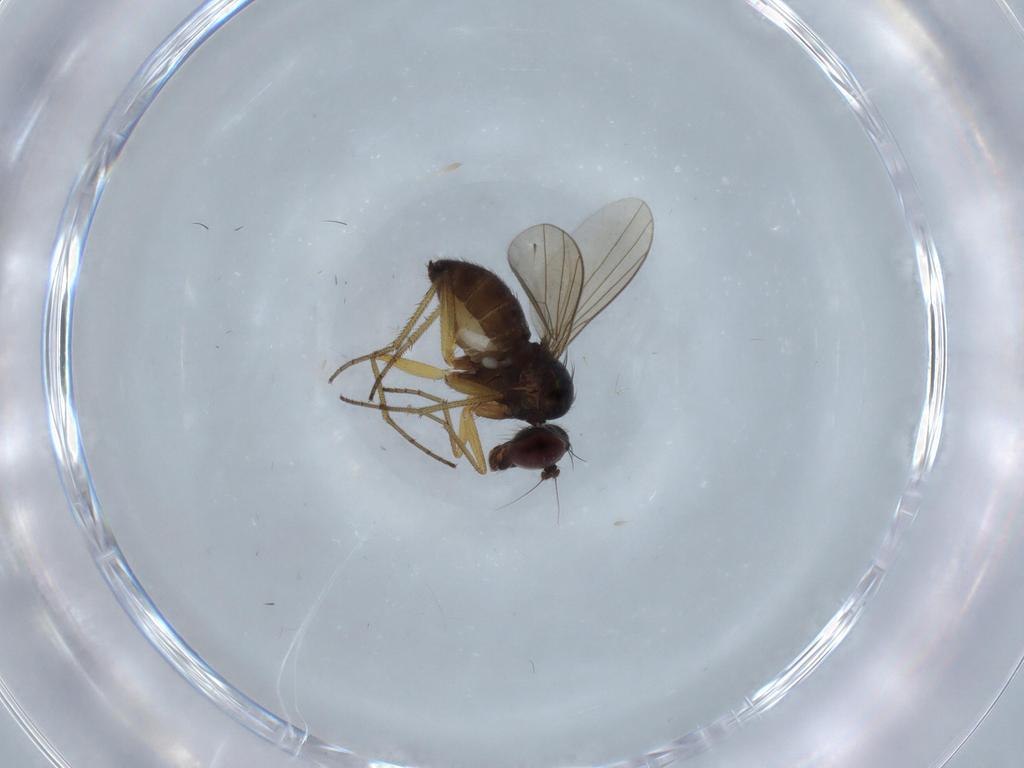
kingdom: Animalia
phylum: Arthropoda
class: Insecta
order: Diptera
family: Dolichopodidae
